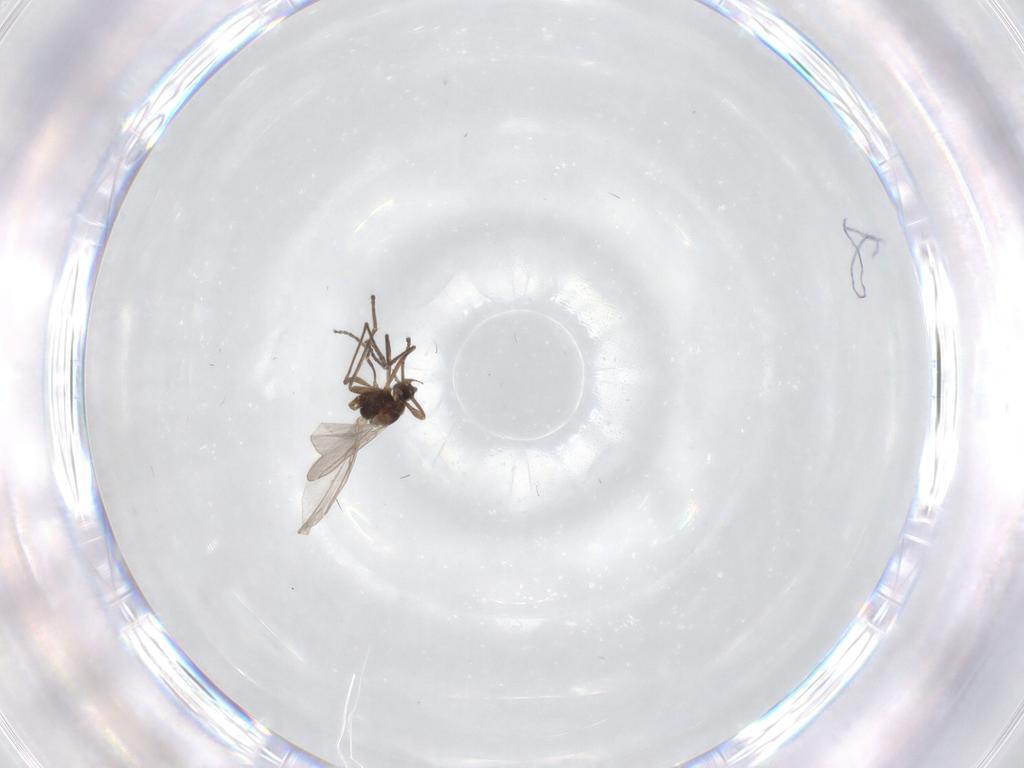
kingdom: Animalia
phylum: Arthropoda
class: Insecta
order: Diptera
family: Cecidomyiidae
